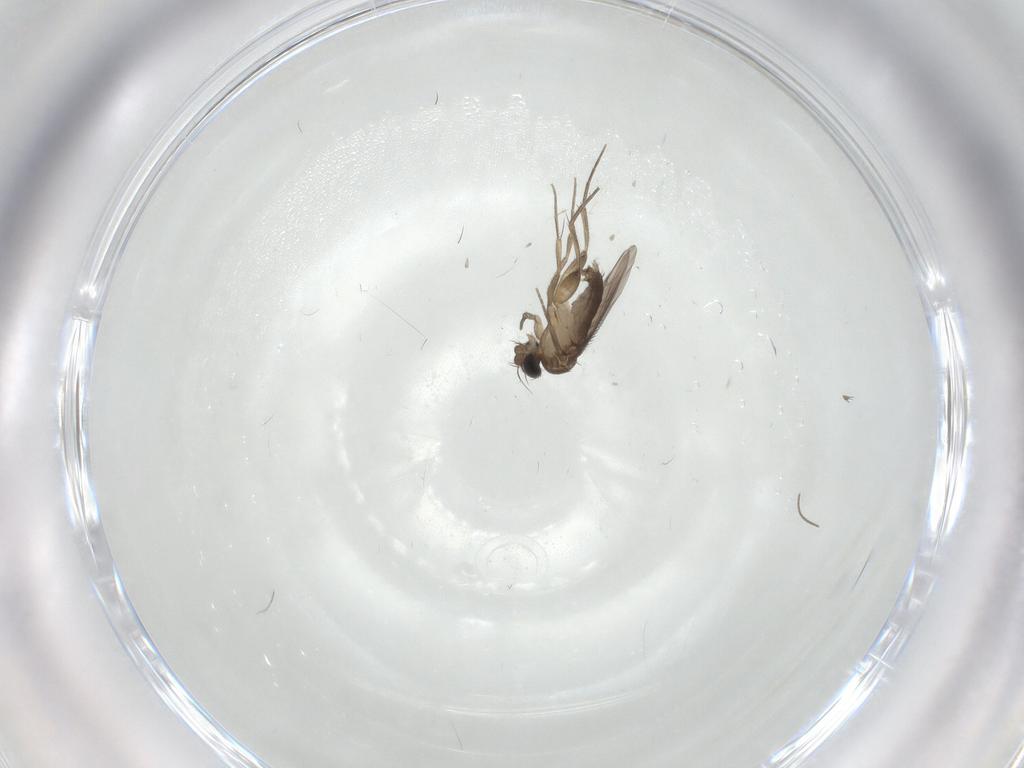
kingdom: Animalia
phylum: Arthropoda
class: Insecta
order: Diptera
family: Phoridae
